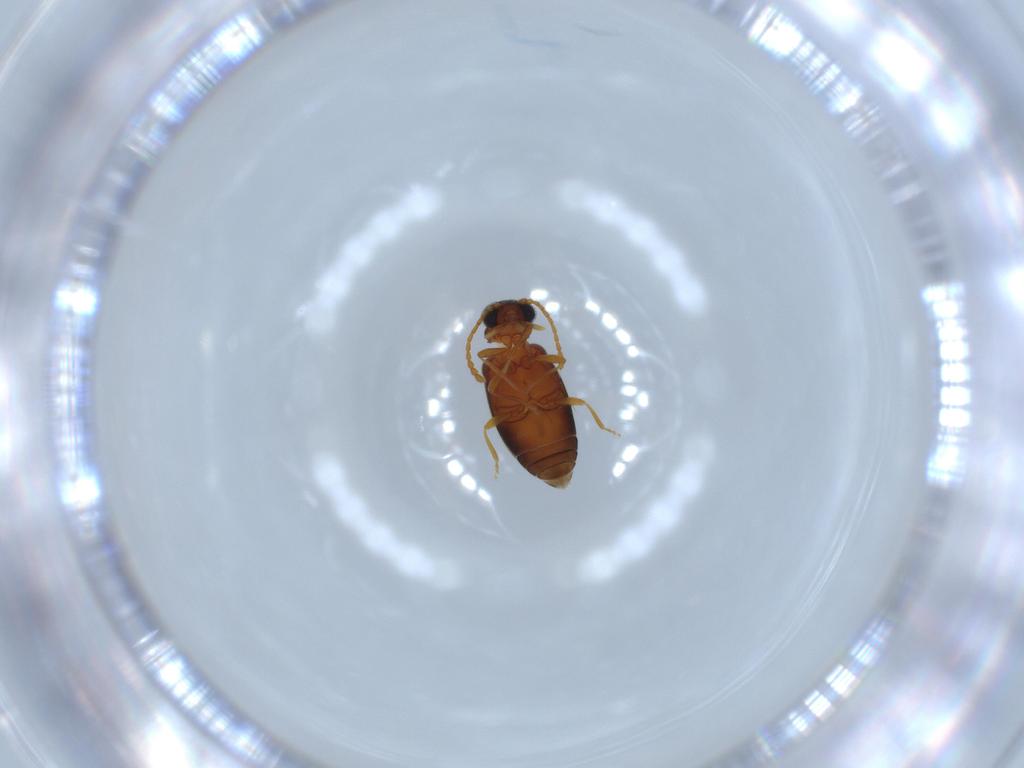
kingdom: Animalia
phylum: Arthropoda
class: Insecta
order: Coleoptera
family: Aderidae
